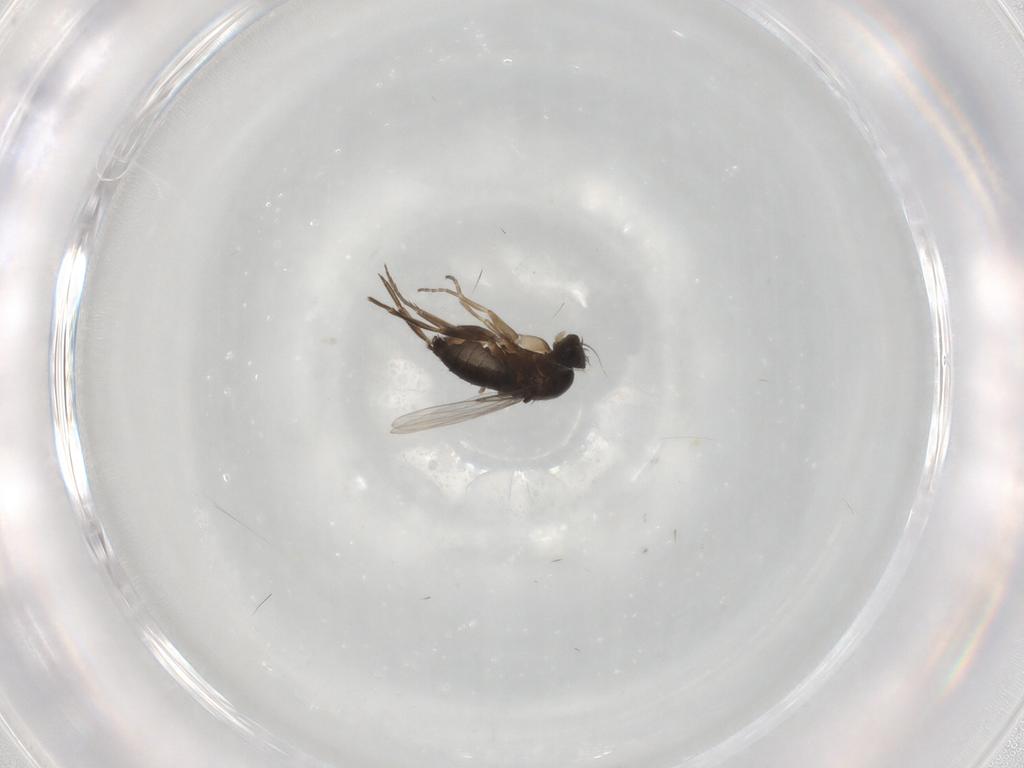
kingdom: Animalia
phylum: Arthropoda
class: Insecta
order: Diptera
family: Phoridae
